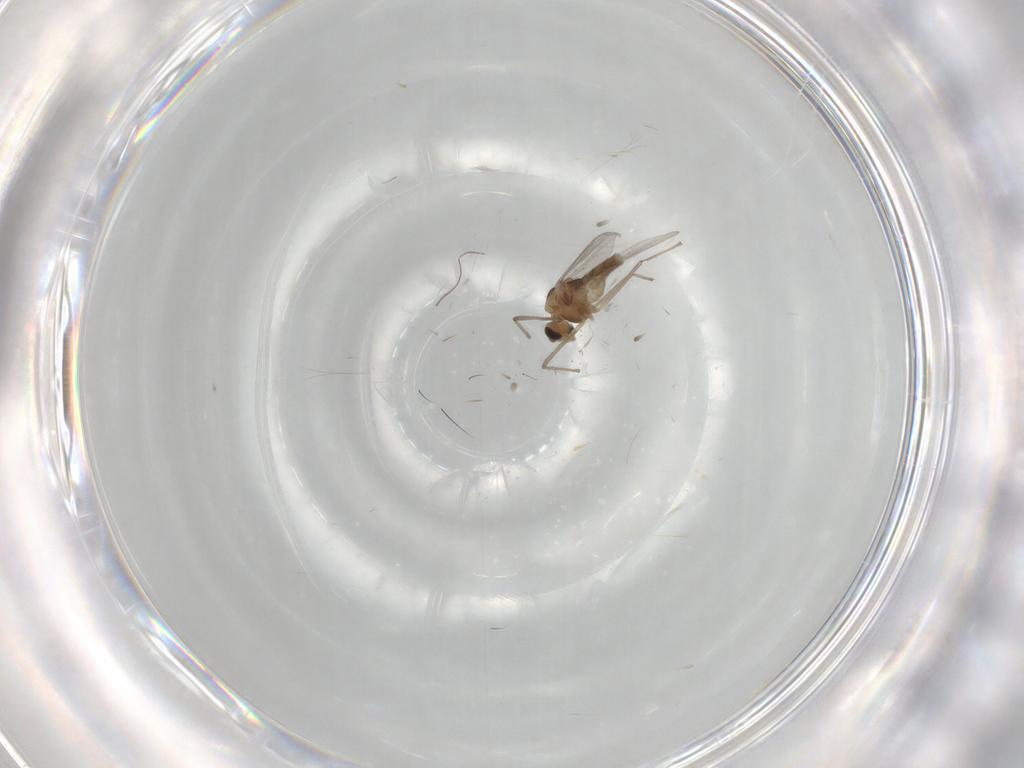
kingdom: Animalia
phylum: Arthropoda
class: Insecta
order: Diptera
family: Chironomidae
